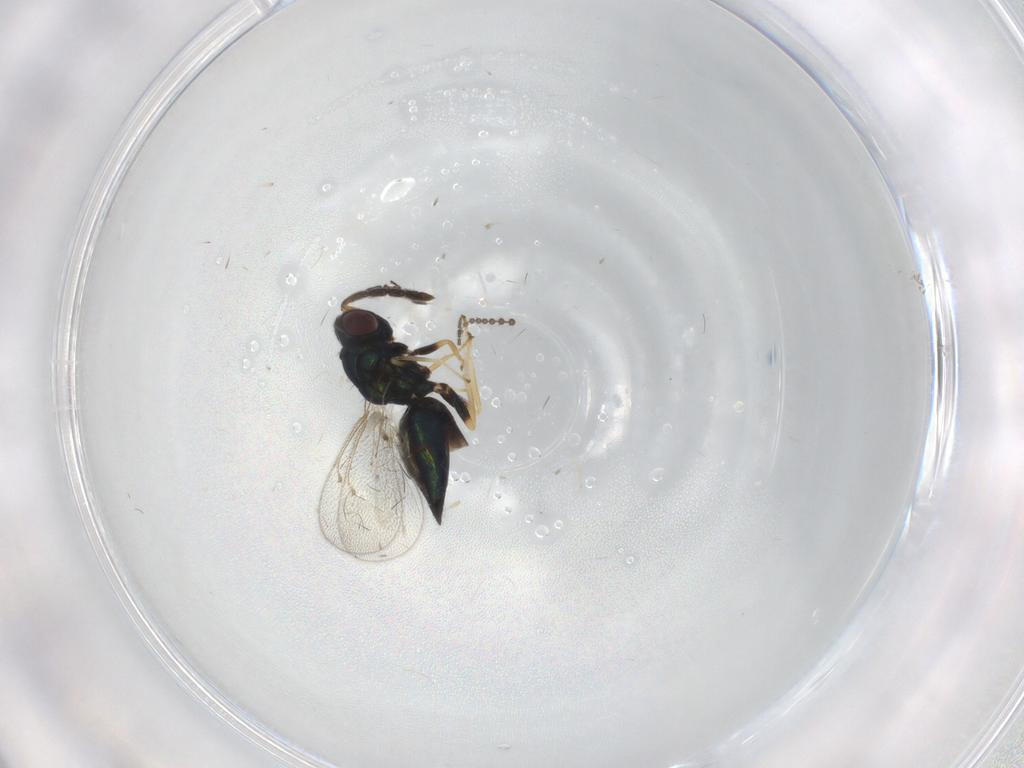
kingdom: Animalia
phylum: Arthropoda
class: Insecta
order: Hymenoptera
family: Eulophidae
